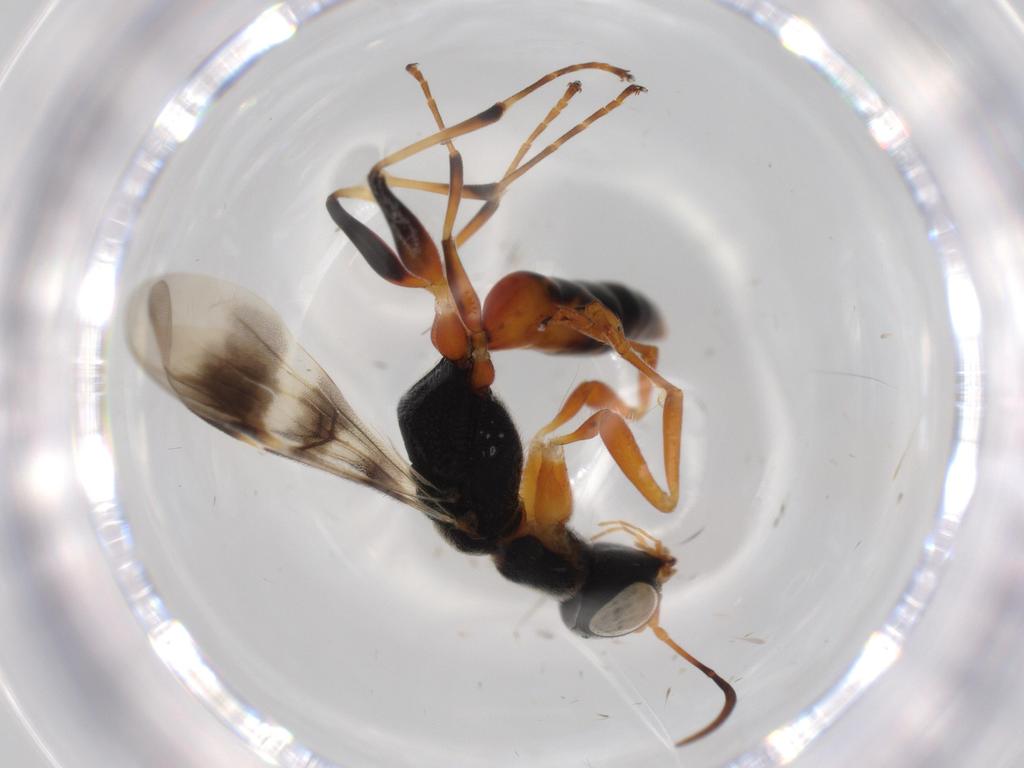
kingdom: Animalia
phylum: Arthropoda
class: Insecta
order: Hymenoptera
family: Dryinidae
